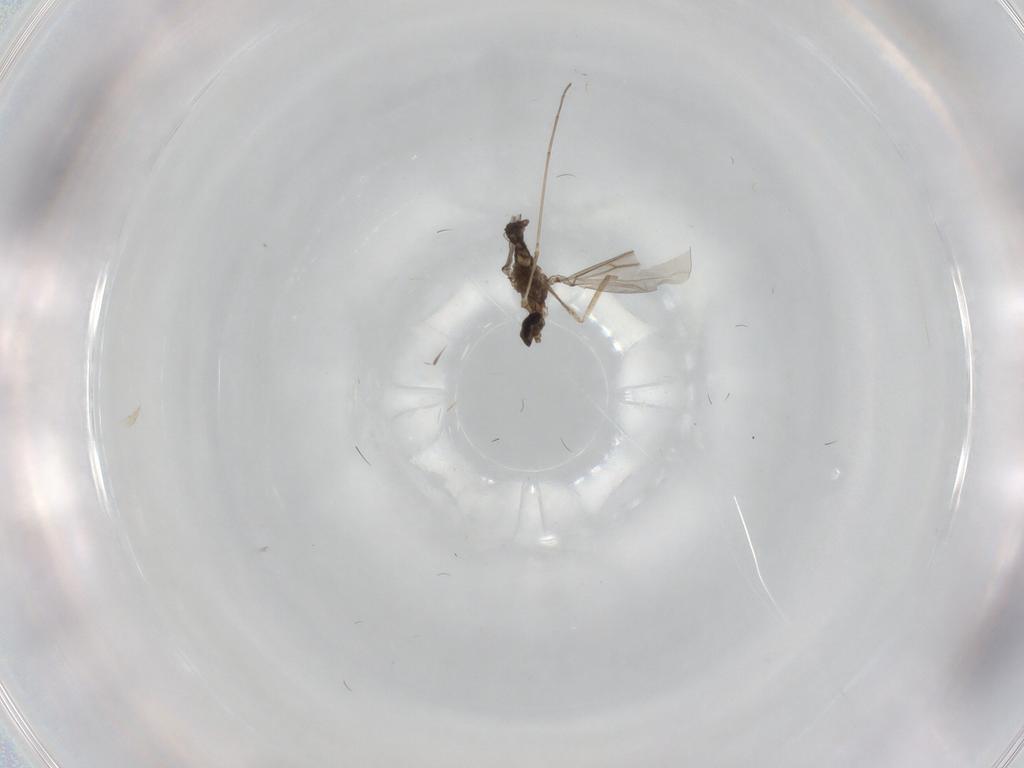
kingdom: Animalia
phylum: Arthropoda
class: Insecta
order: Diptera
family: Cecidomyiidae
